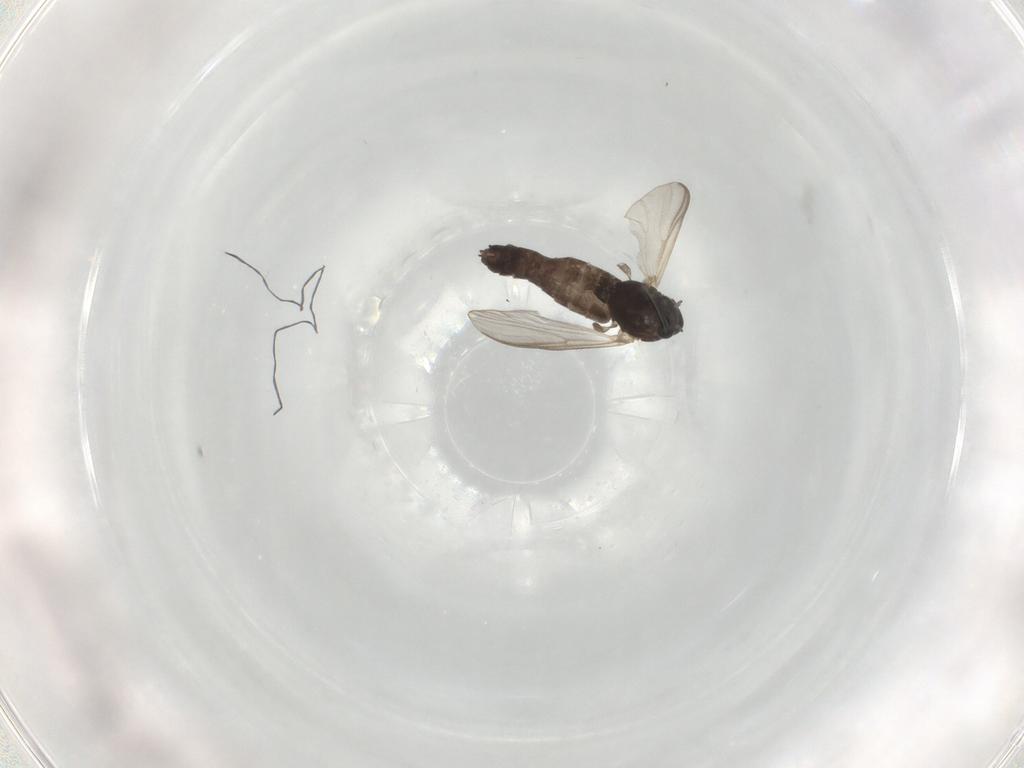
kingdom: Animalia
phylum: Arthropoda
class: Insecta
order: Diptera
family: Chironomidae
